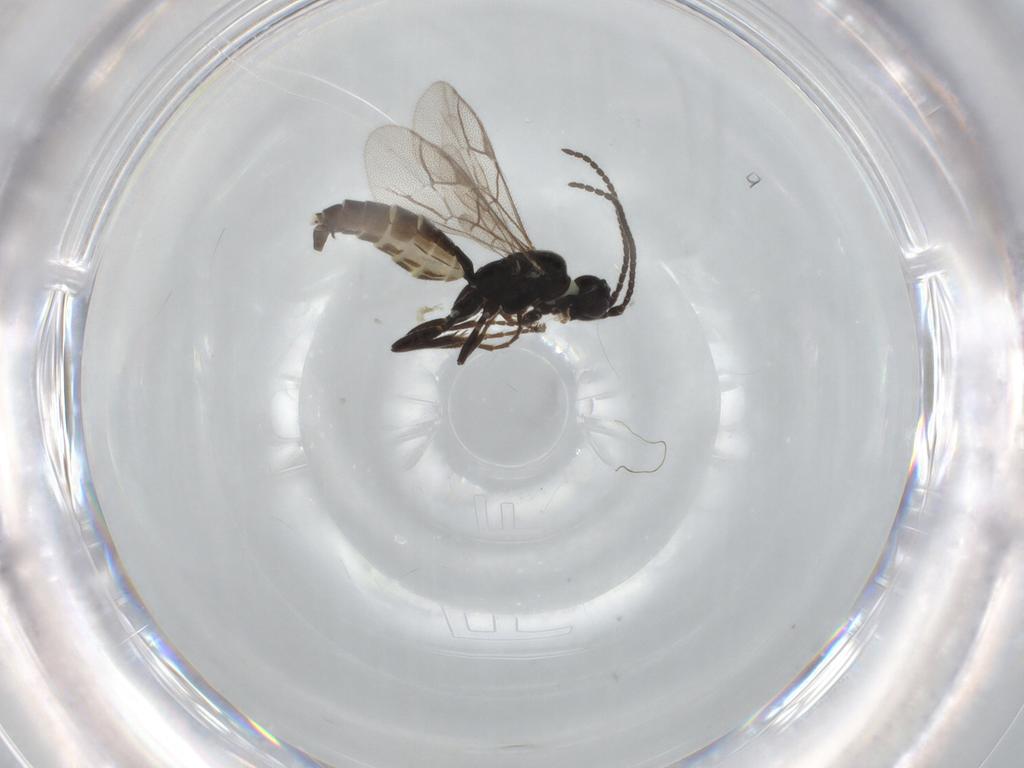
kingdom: Animalia
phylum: Arthropoda
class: Insecta
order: Hymenoptera
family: Ichneumonidae
